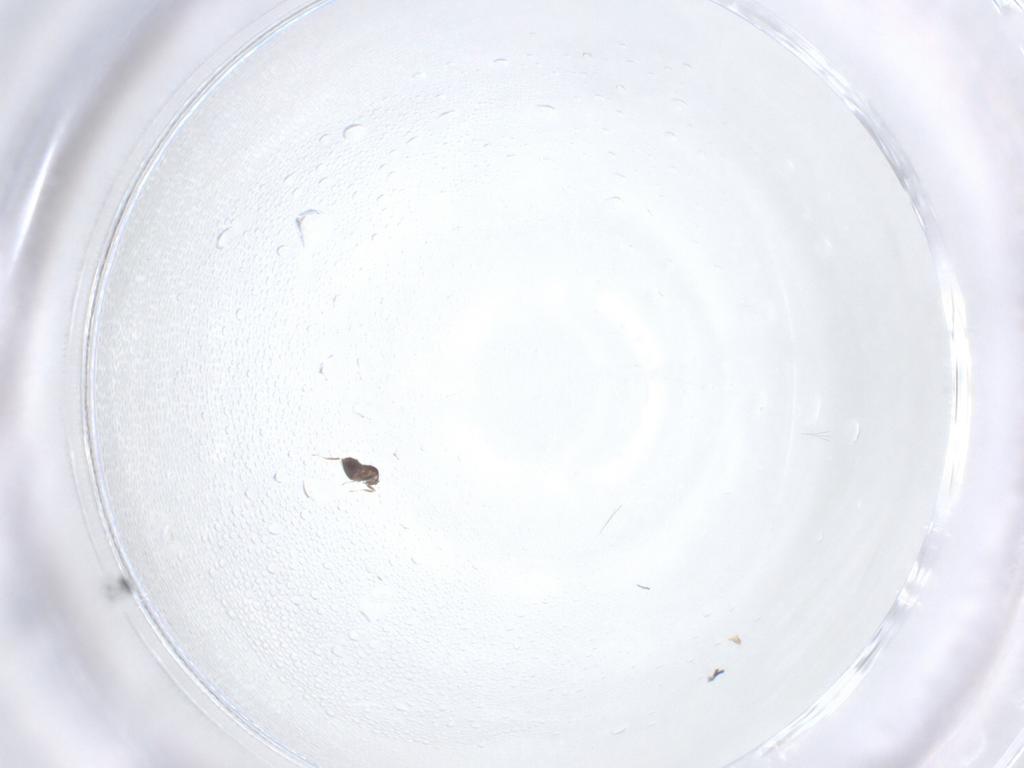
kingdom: Animalia
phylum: Arthropoda
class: Insecta
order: Hymenoptera
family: Mymaridae
